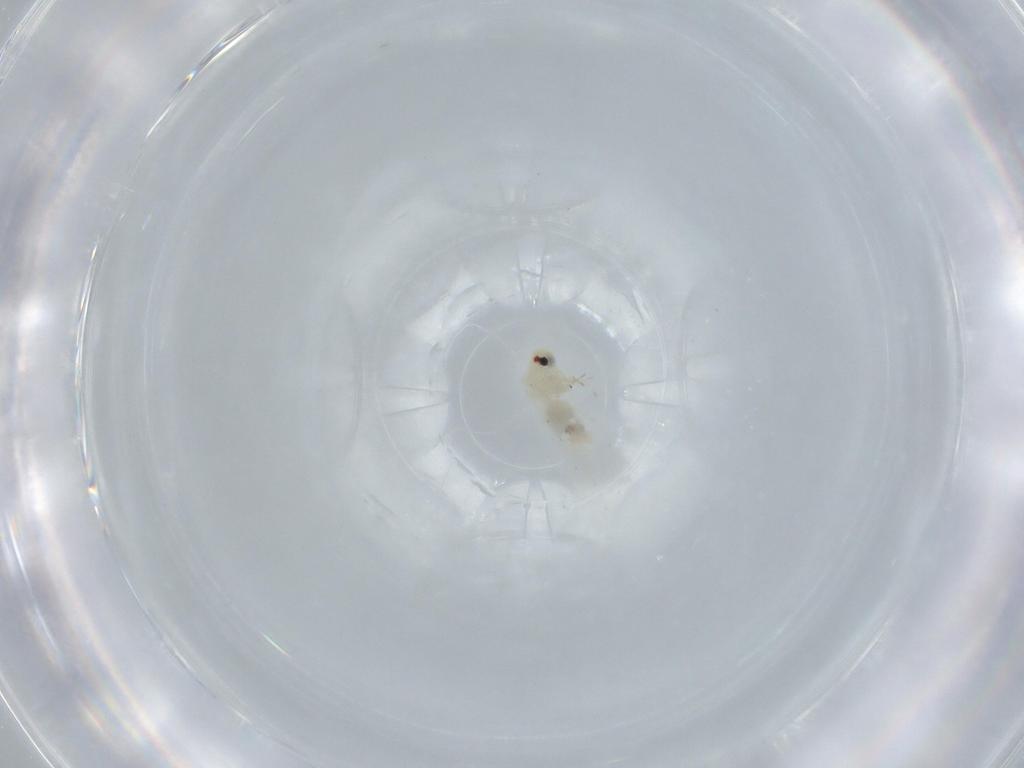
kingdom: Animalia
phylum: Arthropoda
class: Insecta
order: Hemiptera
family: Aleyrodidae
